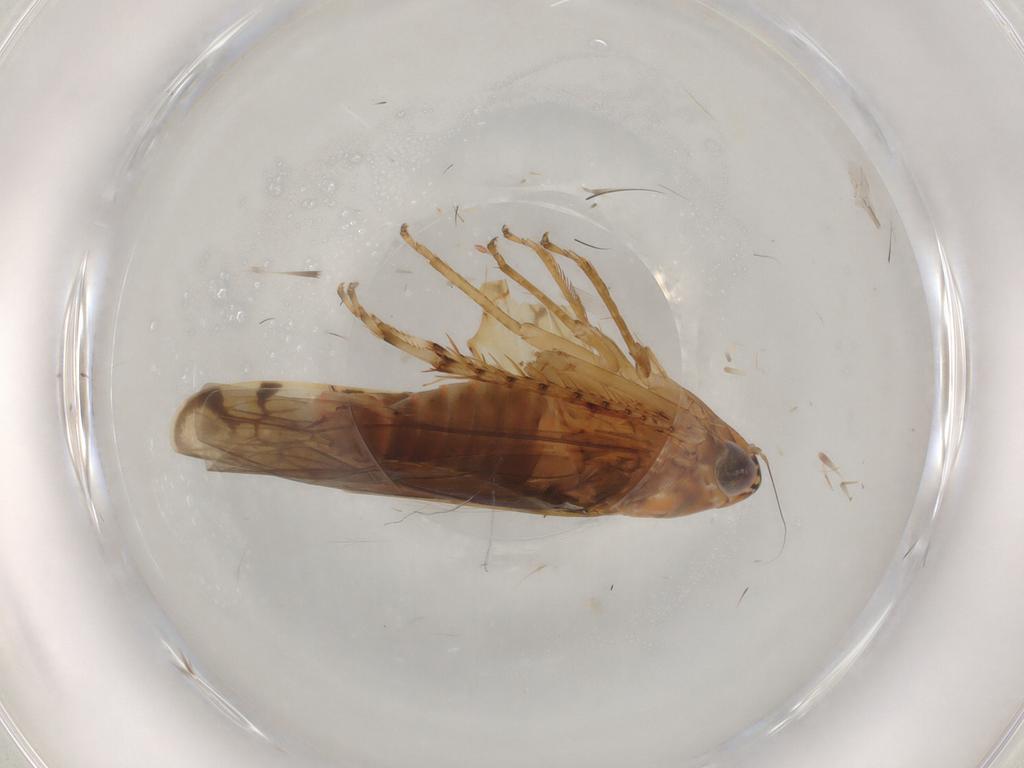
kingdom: Animalia
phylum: Arthropoda
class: Insecta
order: Hemiptera
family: Cicadellidae
